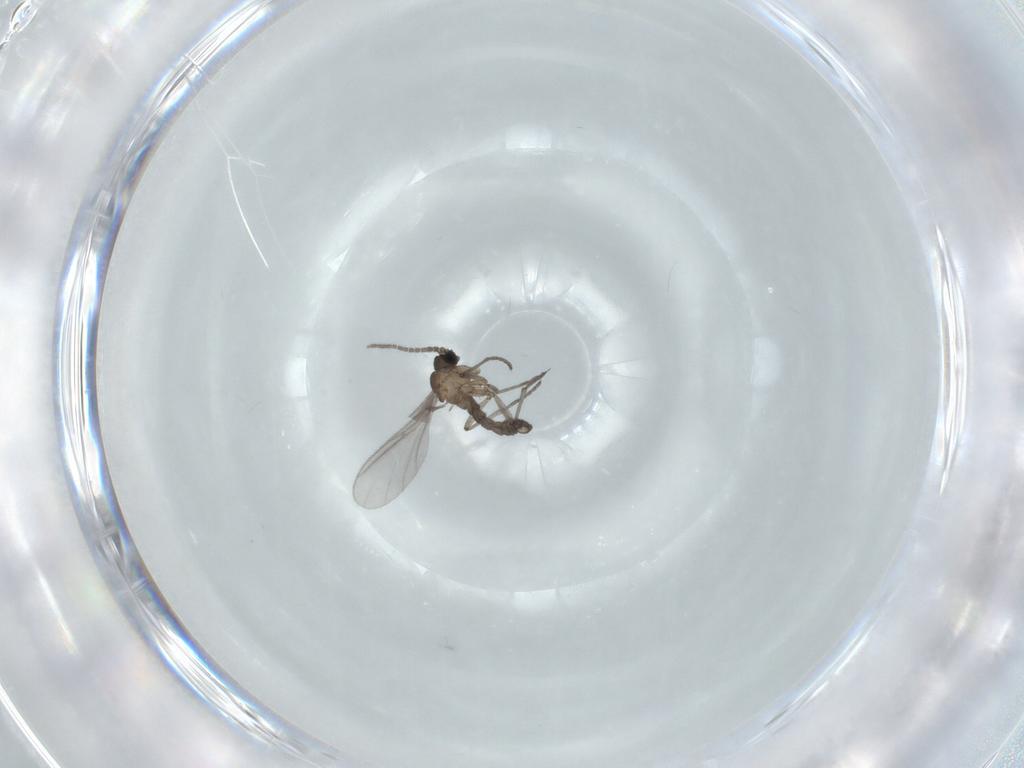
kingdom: Animalia
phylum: Arthropoda
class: Insecta
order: Diptera
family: Sciaridae
